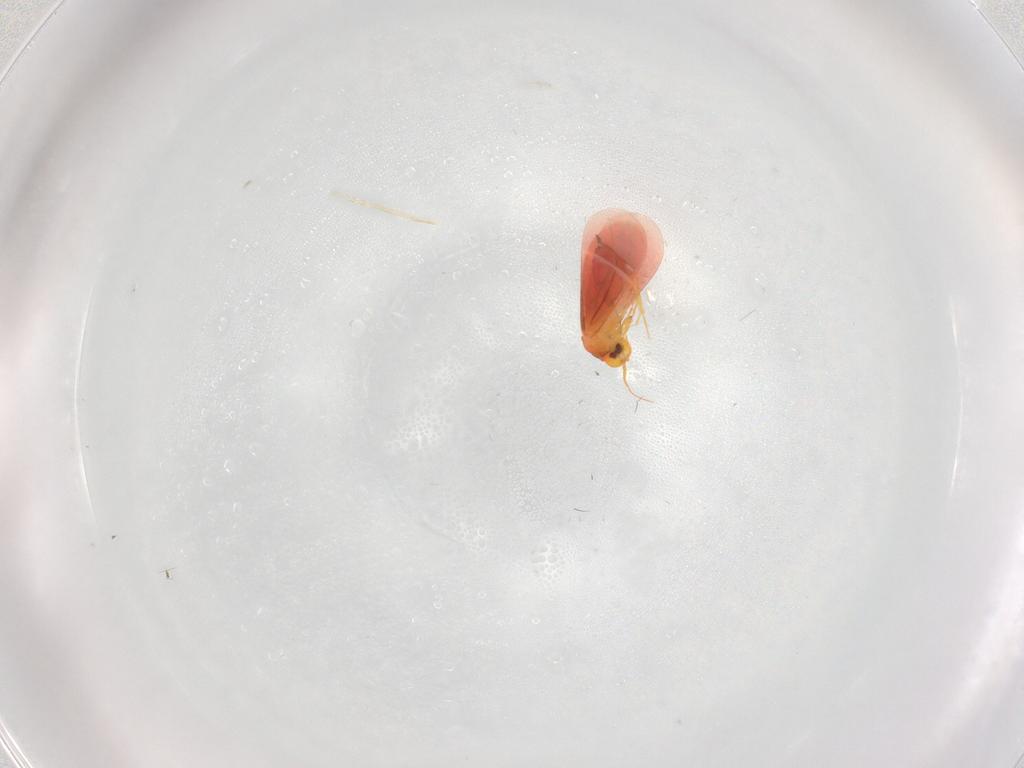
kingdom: Animalia
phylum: Arthropoda
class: Insecta
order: Hemiptera
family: Aleyrodidae
